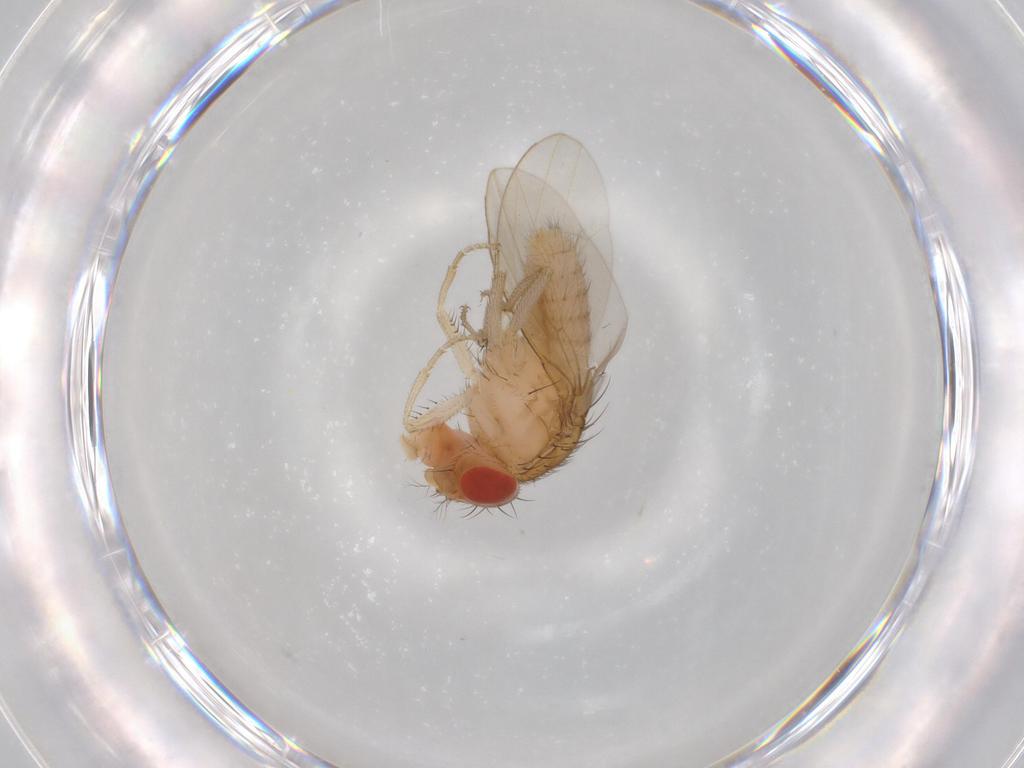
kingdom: Animalia
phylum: Arthropoda
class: Insecta
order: Diptera
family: Drosophilidae
